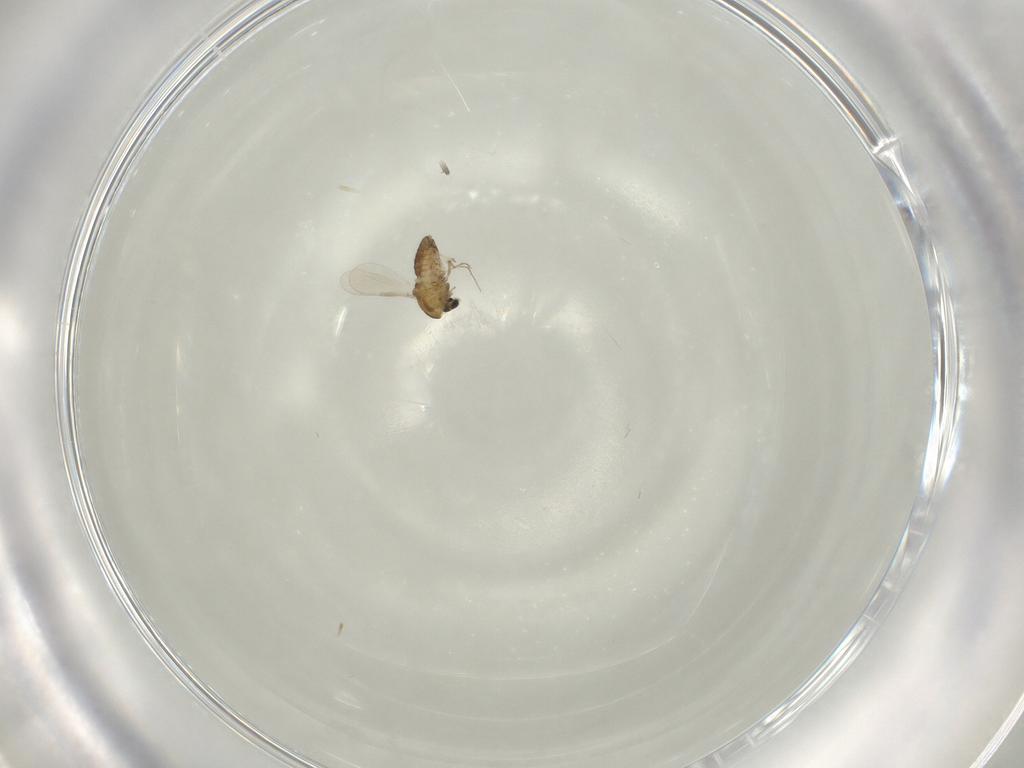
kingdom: Animalia
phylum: Arthropoda
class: Insecta
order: Diptera
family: Chironomidae
